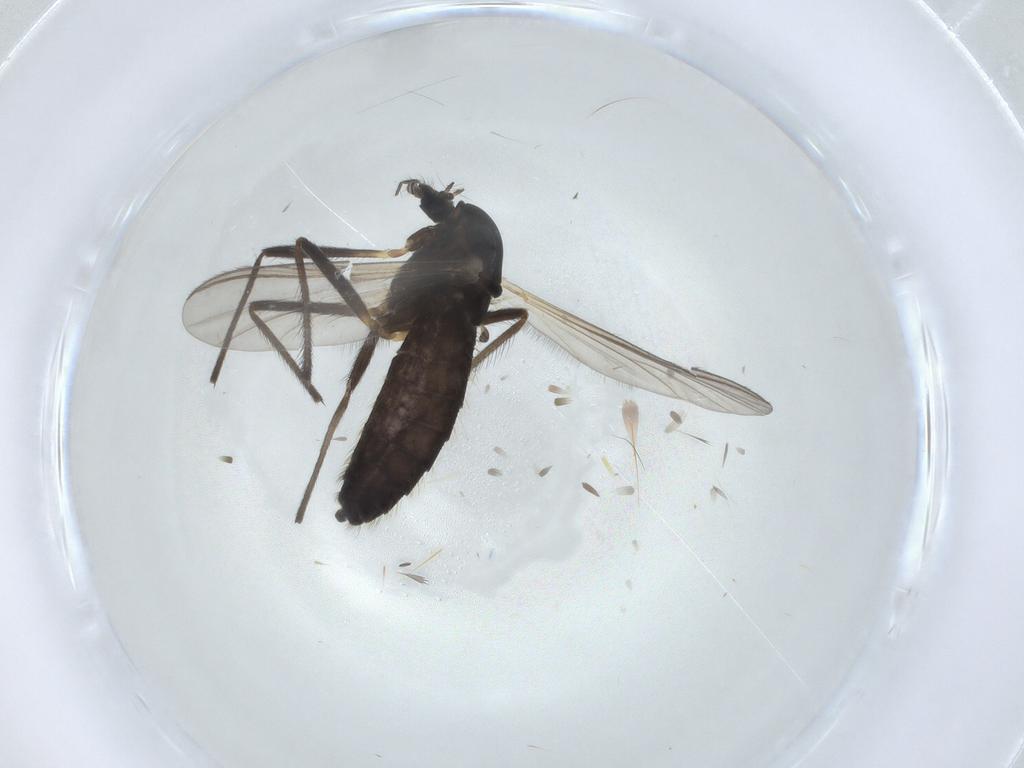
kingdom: Animalia
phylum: Arthropoda
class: Insecta
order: Diptera
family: Chironomidae
